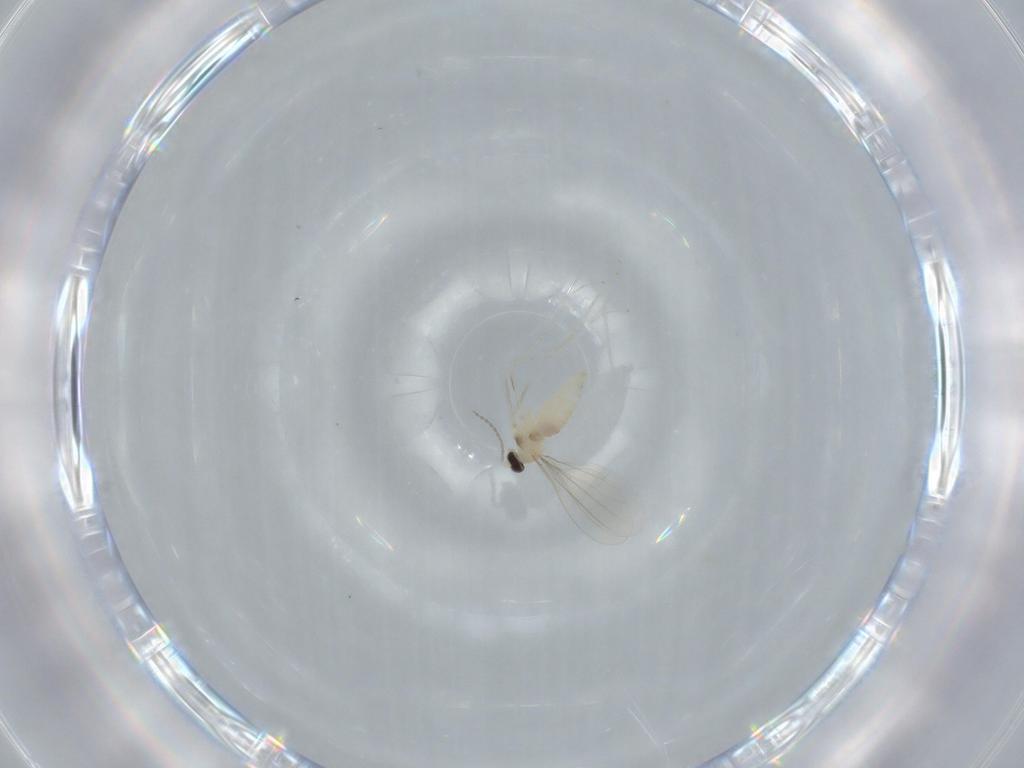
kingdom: Animalia
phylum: Arthropoda
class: Insecta
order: Diptera
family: Cecidomyiidae
